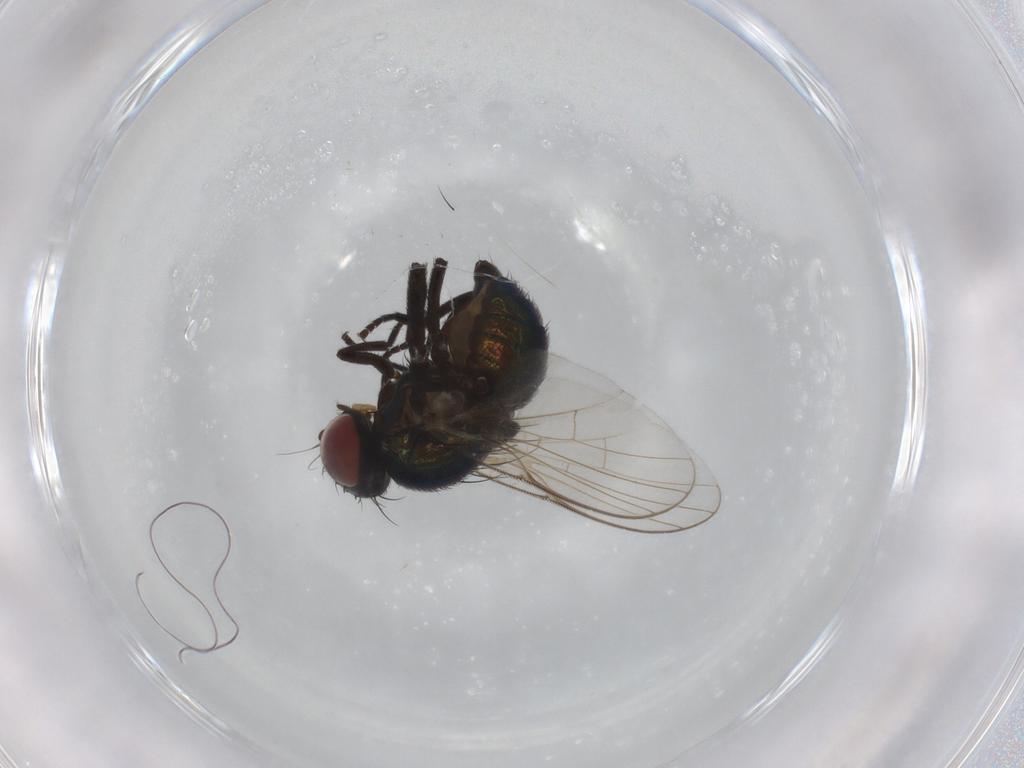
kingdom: Animalia
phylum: Arthropoda
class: Insecta
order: Diptera
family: Agromyzidae
